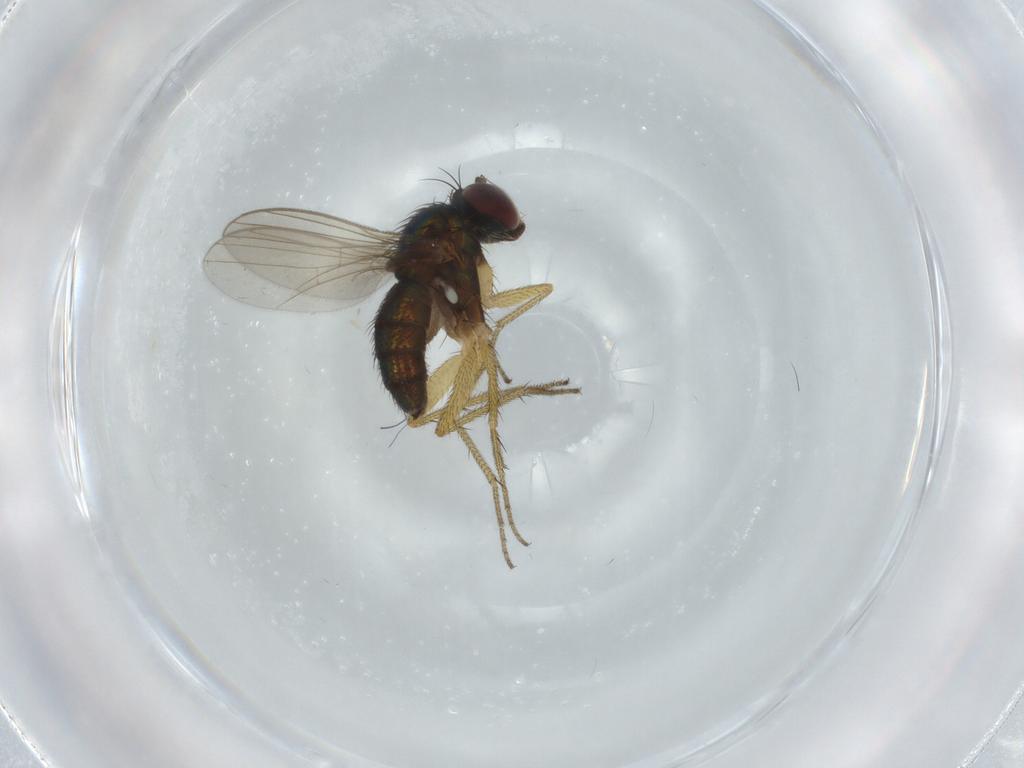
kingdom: Animalia
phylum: Arthropoda
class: Insecta
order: Diptera
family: Dolichopodidae
